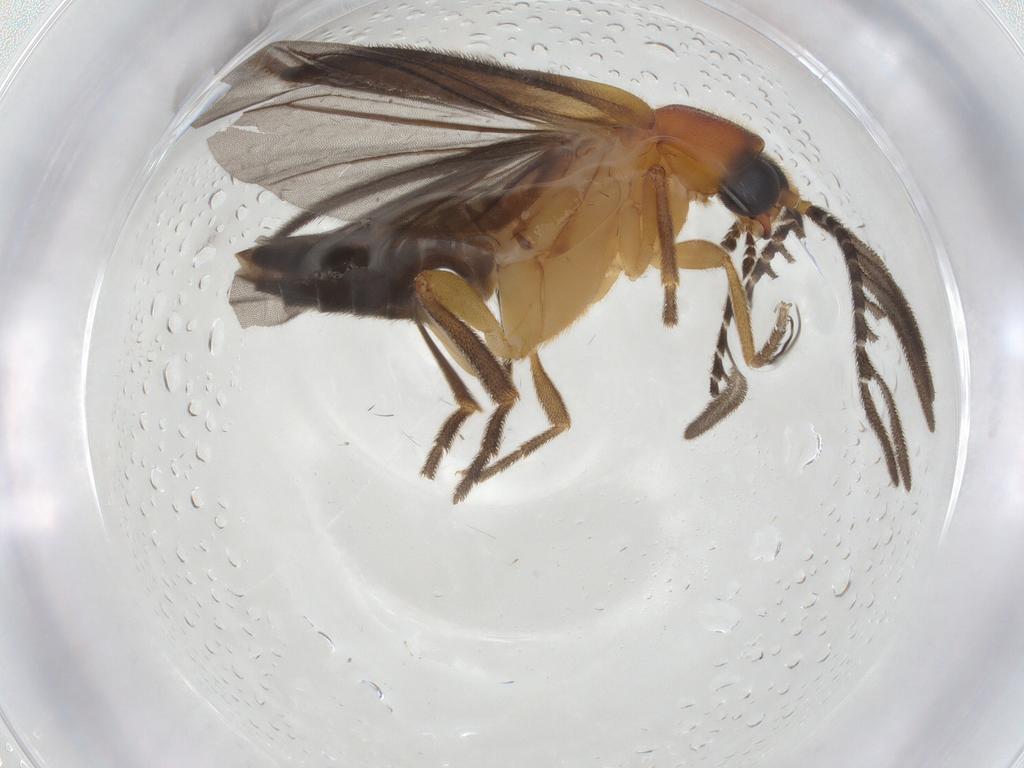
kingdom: Animalia
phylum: Arthropoda
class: Insecta
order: Coleoptera
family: Lampyridae
